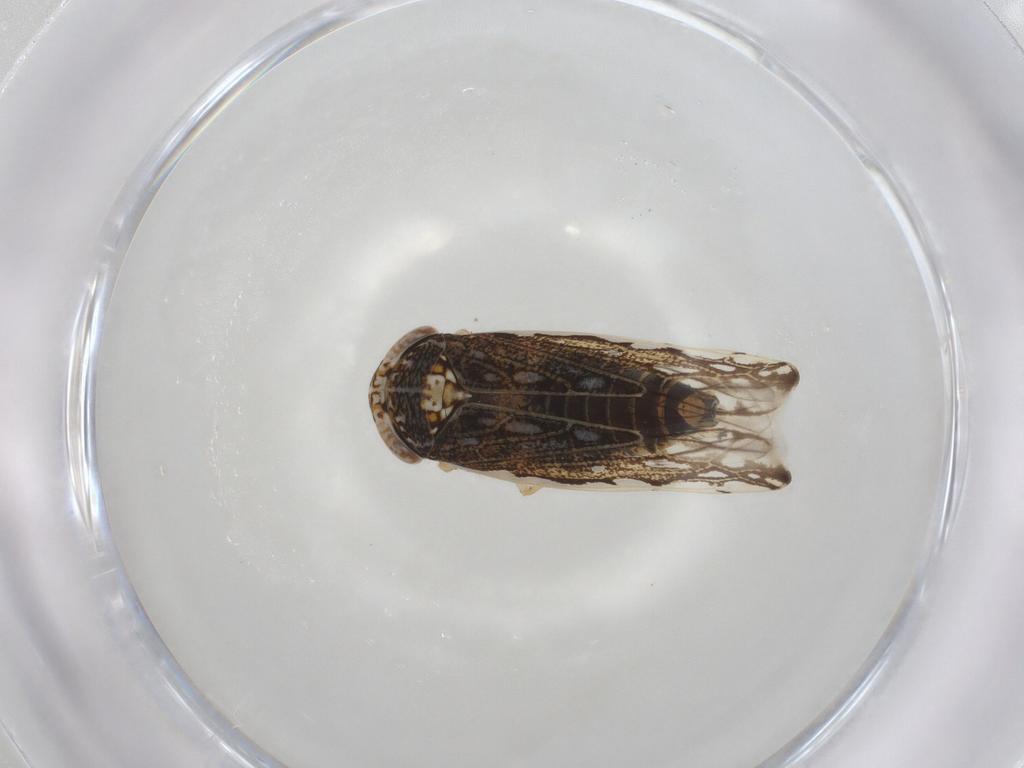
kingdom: Animalia
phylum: Arthropoda
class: Insecta
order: Hemiptera
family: Cicadellidae
